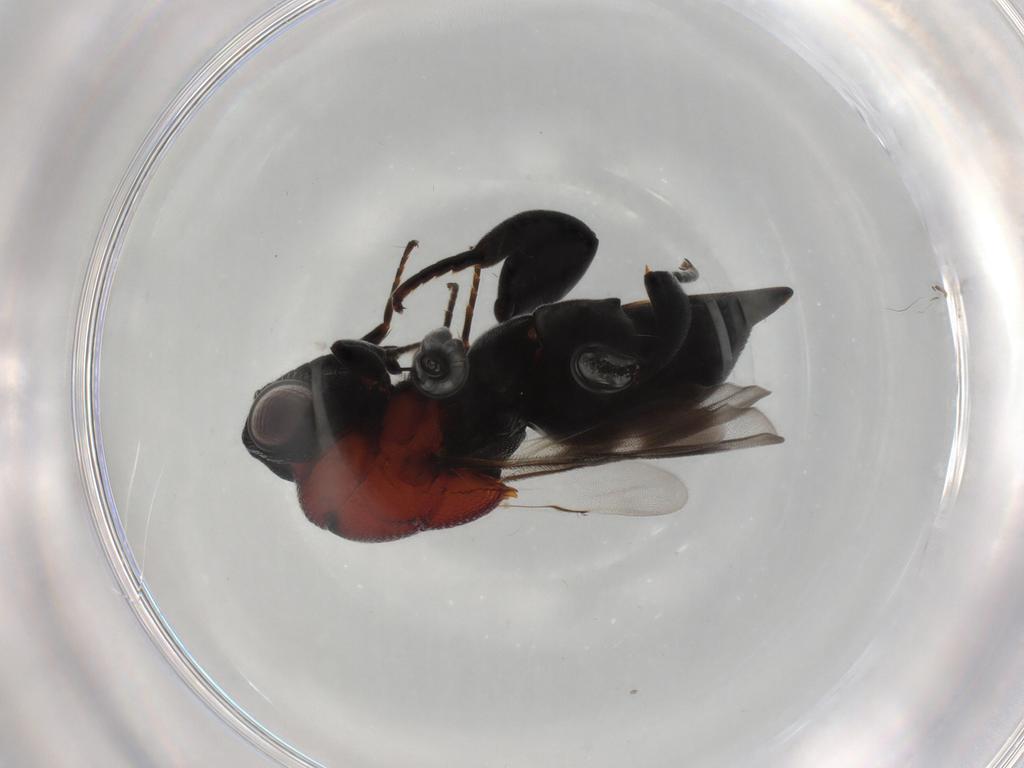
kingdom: Animalia
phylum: Arthropoda
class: Insecta
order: Hymenoptera
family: Chalcididae
